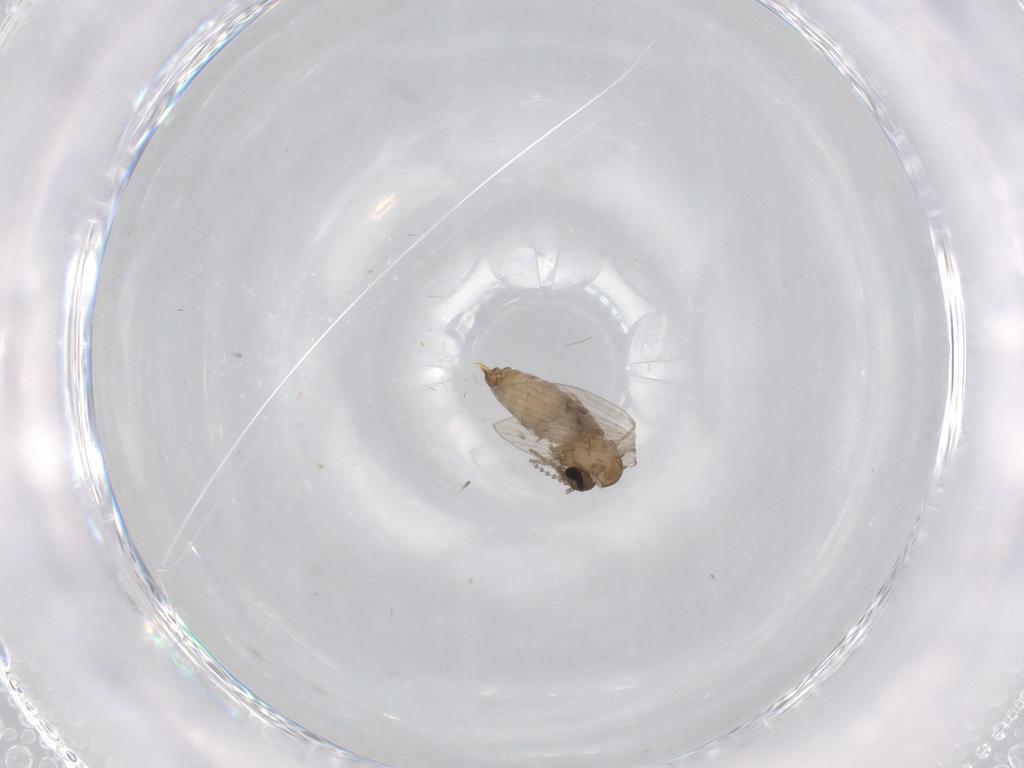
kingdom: Animalia
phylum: Arthropoda
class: Insecta
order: Diptera
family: Psychodidae
